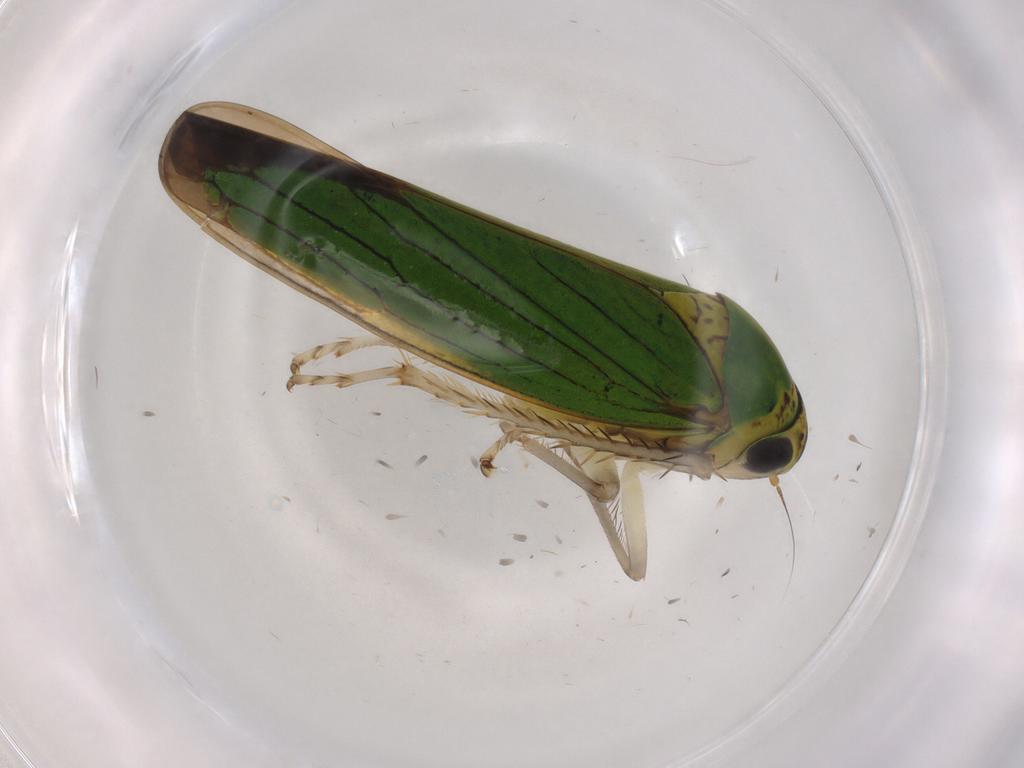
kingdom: Animalia
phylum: Arthropoda
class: Insecta
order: Hemiptera
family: Cicadellidae
